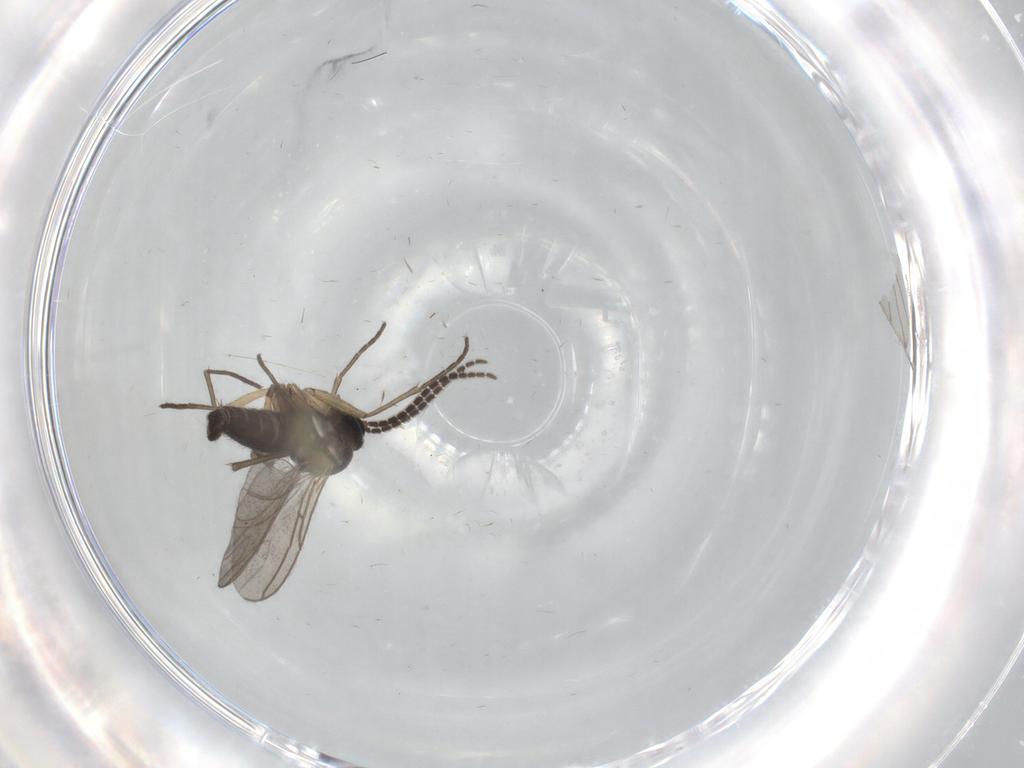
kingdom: Animalia
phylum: Arthropoda
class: Insecta
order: Diptera
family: Sciaridae
